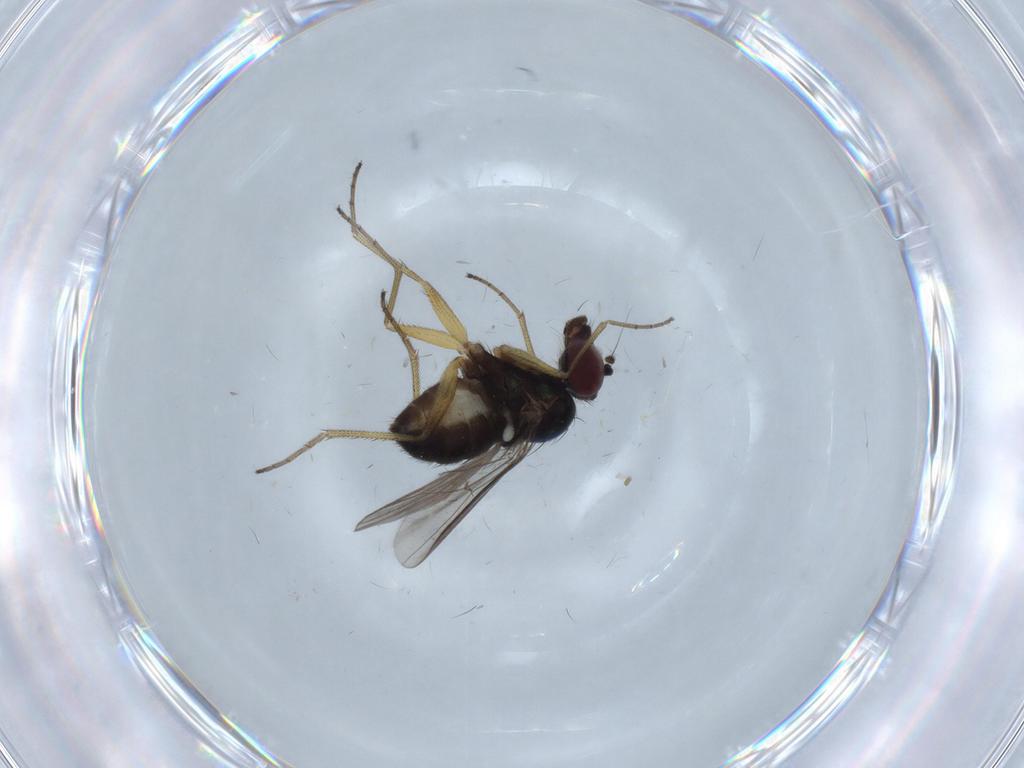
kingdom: Animalia
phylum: Arthropoda
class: Insecta
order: Diptera
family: Dolichopodidae
